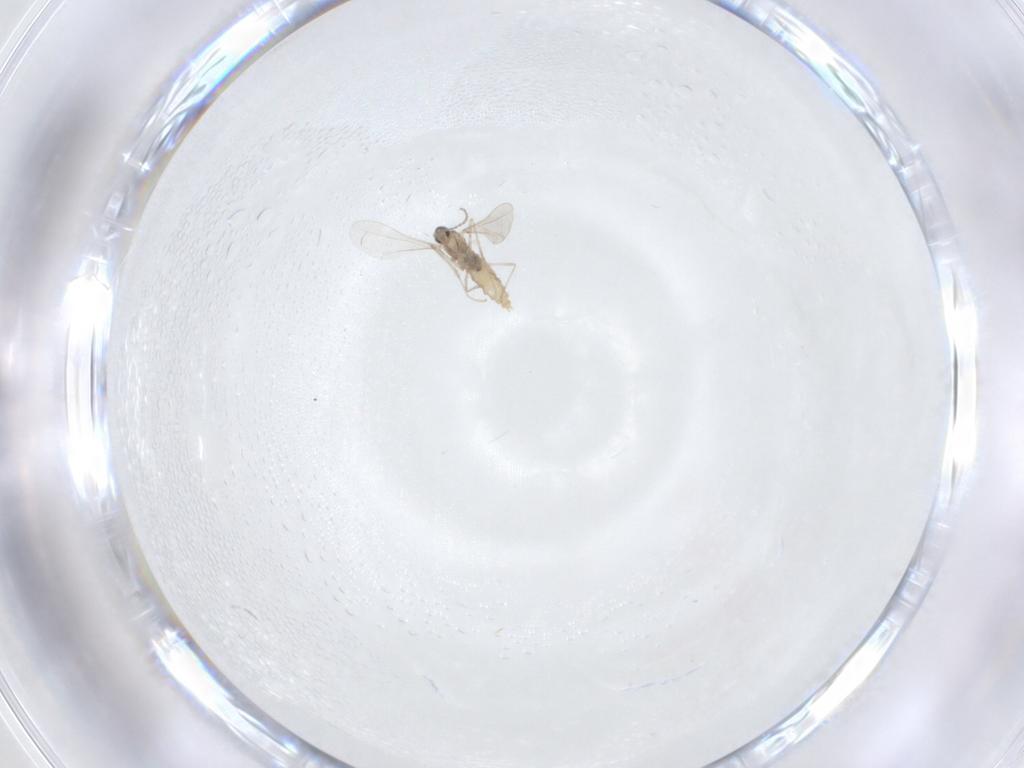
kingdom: Animalia
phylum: Arthropoda
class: Insecta
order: Diptera
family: Cecidomyiidae
